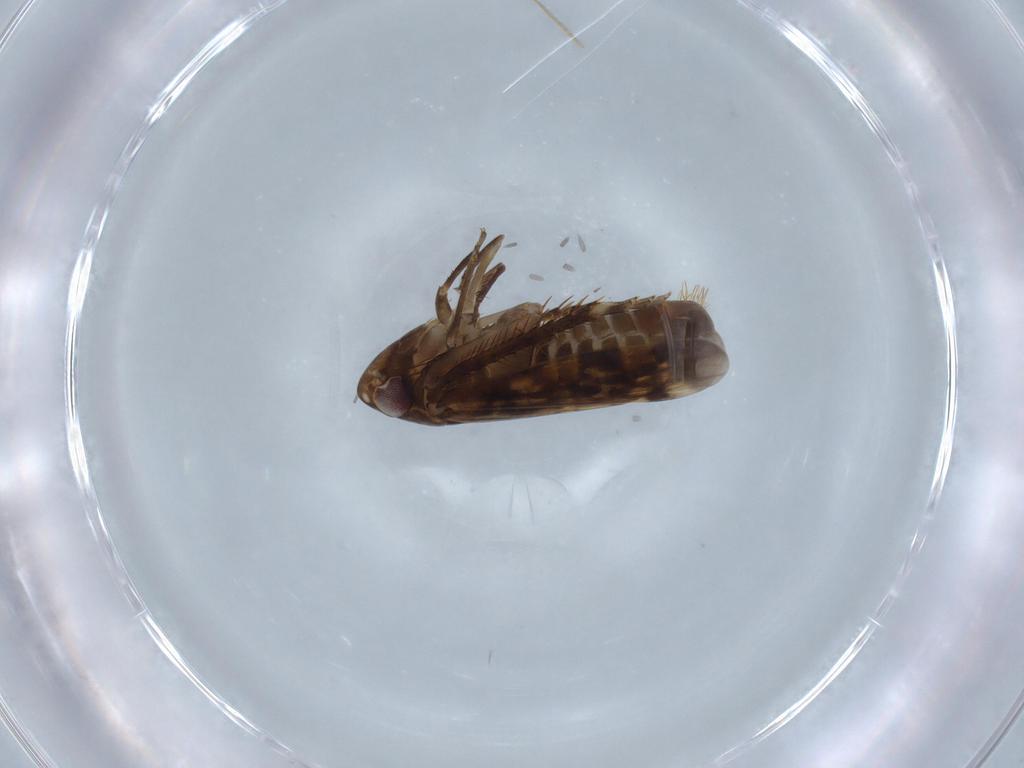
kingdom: Animalia
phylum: Arthropoda
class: Insecta
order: Hemiptera
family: Cicadellidae
